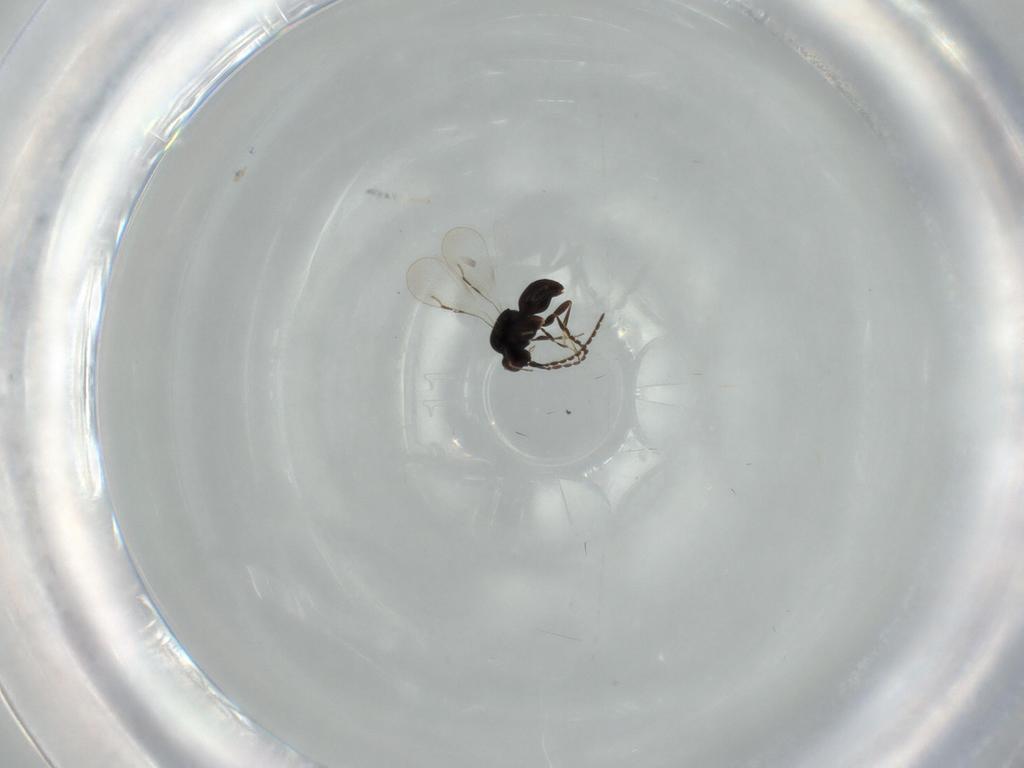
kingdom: Animalia
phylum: Arthropoda
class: Insecta
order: Hymenoptera
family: Ceraphronidae
